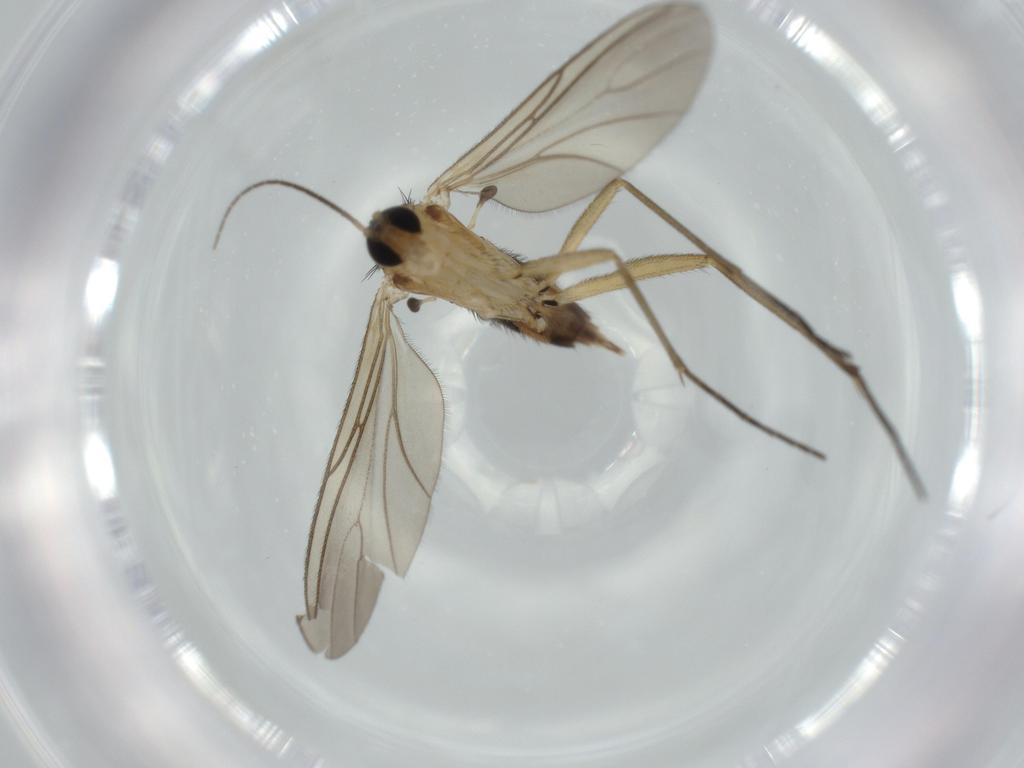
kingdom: Animalia
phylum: Arthropoda
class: Insecta
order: Diptera
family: Sciaridae
